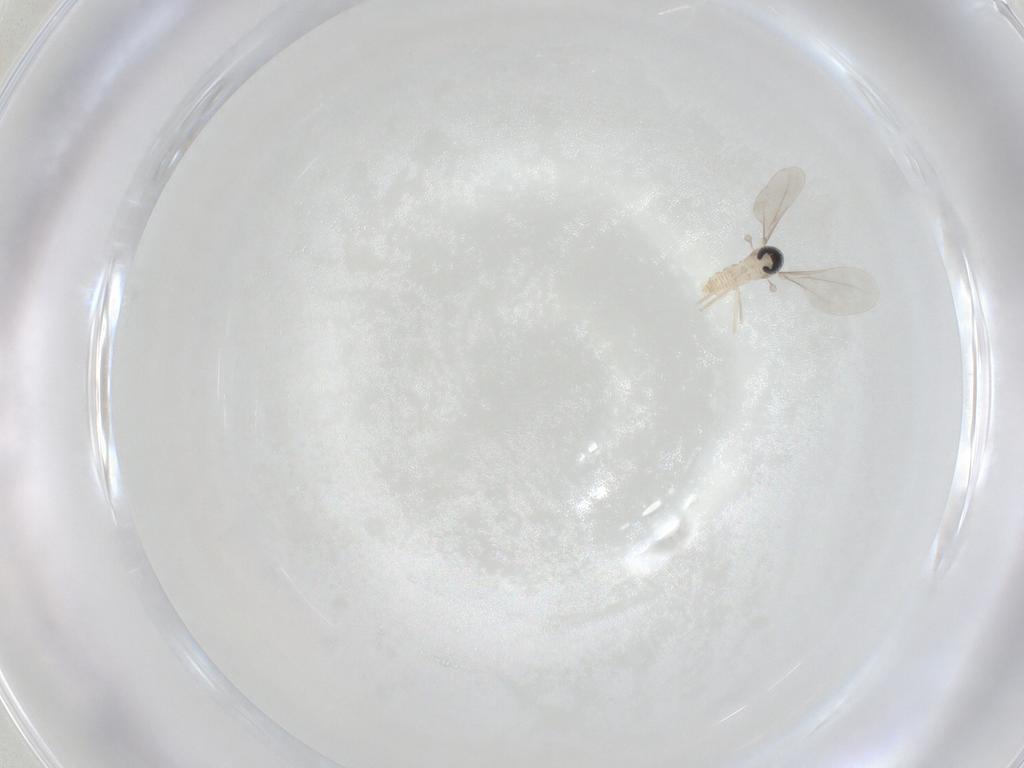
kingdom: Animalia
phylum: Arthropoda
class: Insecta
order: Diptera
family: Cecidomyiidae
